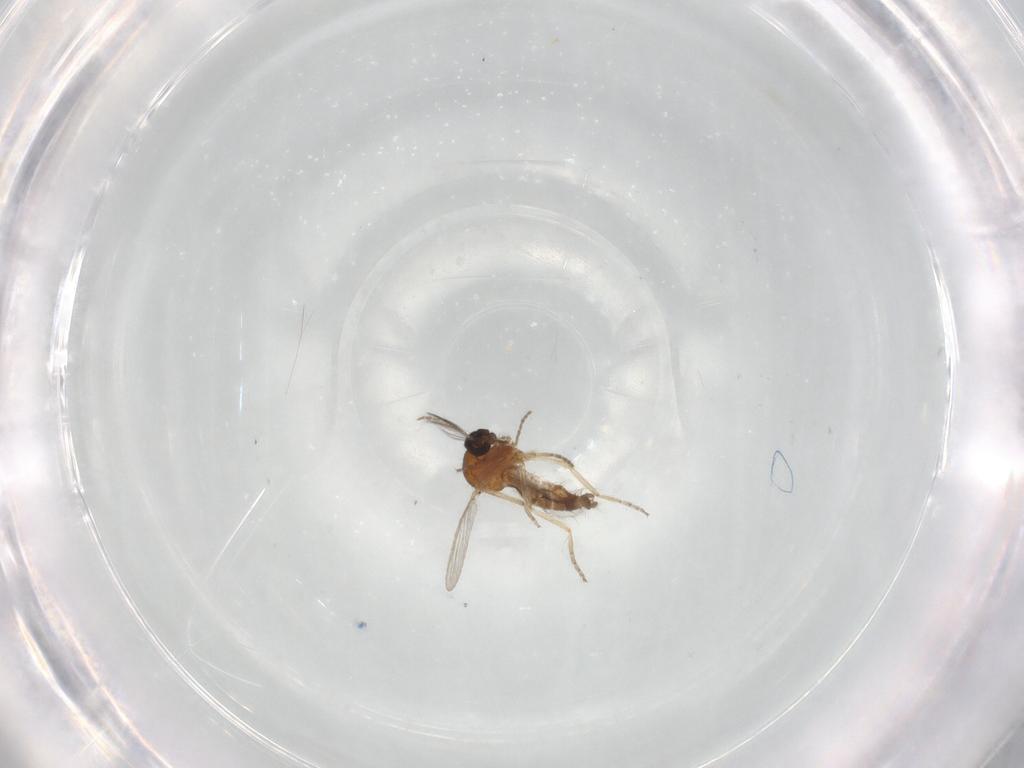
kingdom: Animalia
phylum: Arthropoda
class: Insecta
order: Diptera
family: Ceratopogonidae
